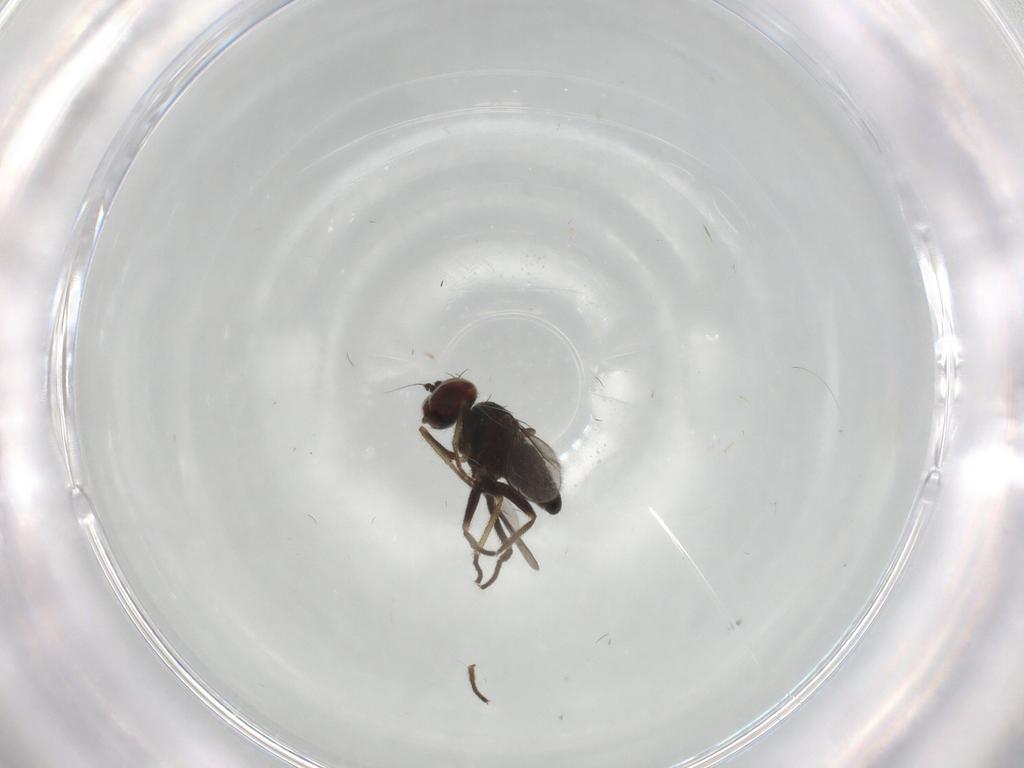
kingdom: Animalia
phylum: Arthropoda
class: Insecta
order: Diptera
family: Dolichopodidae
